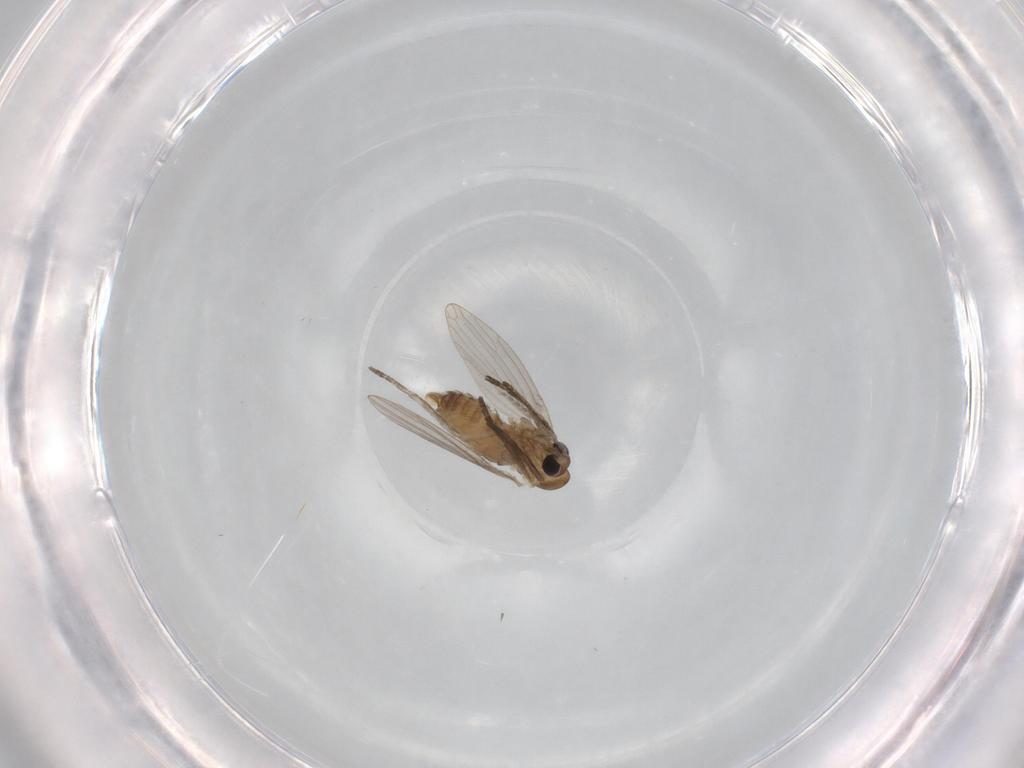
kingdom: Animalia
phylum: Arthropoda
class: Insecta
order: Diptera
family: Psychodidae
